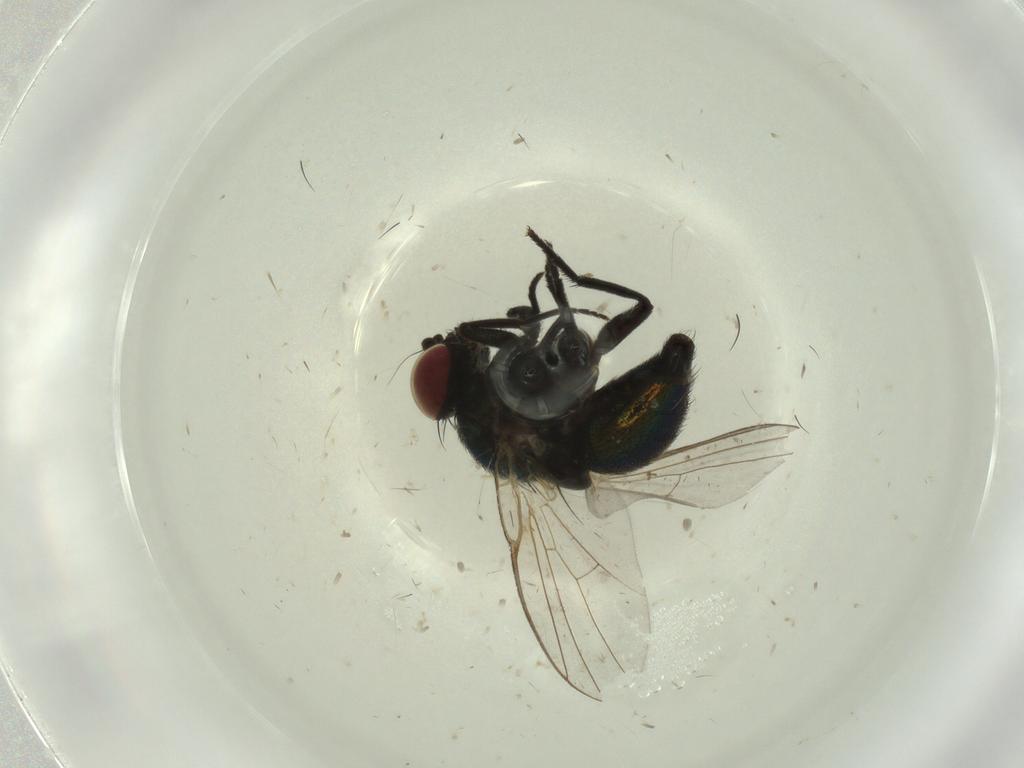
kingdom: Animalia
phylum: Arthropoda
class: Insecta
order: Diptera
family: Agromyzidae
